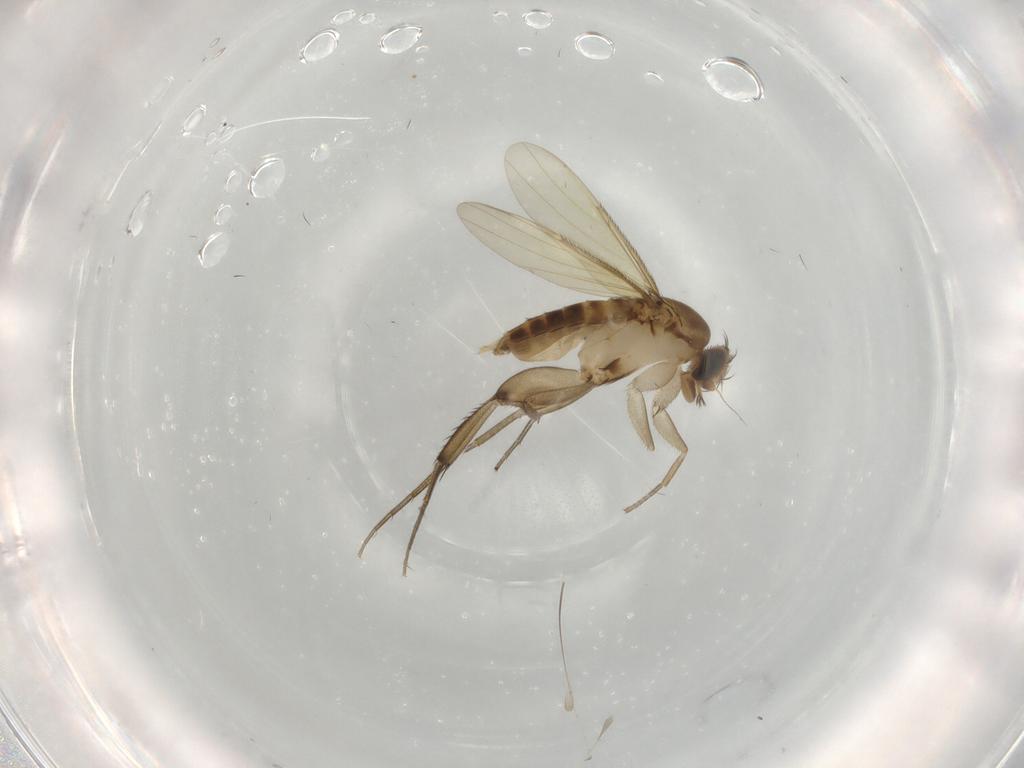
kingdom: Animalia
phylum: Arthropoda
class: Insecta
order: Diptera
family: Phoridae
